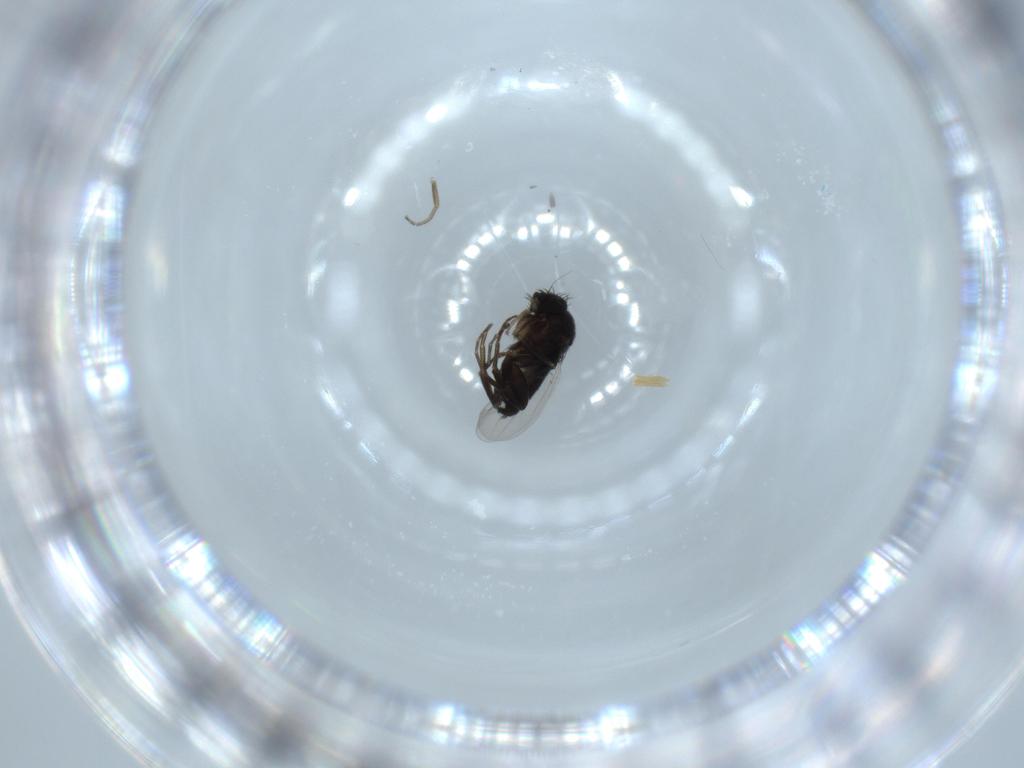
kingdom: Animalia
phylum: Arthropoda
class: Insecta
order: Diptera
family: Phoridae
